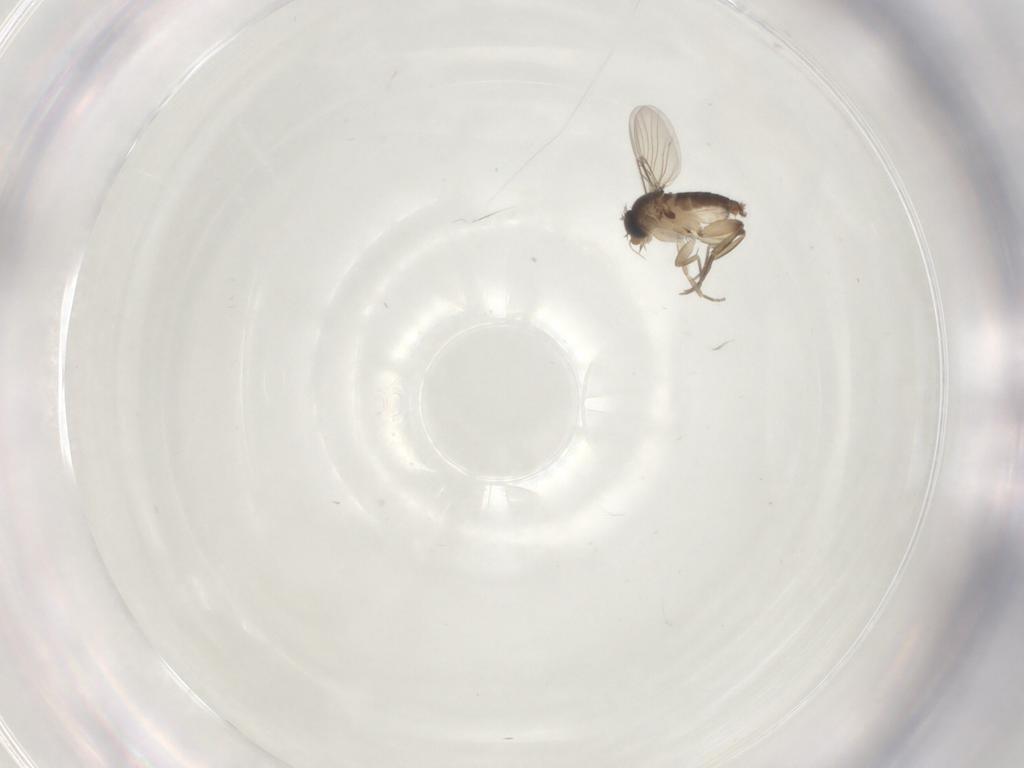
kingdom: Animalia
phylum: Arthropoda
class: Insecta
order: Diptera
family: Phoridae
